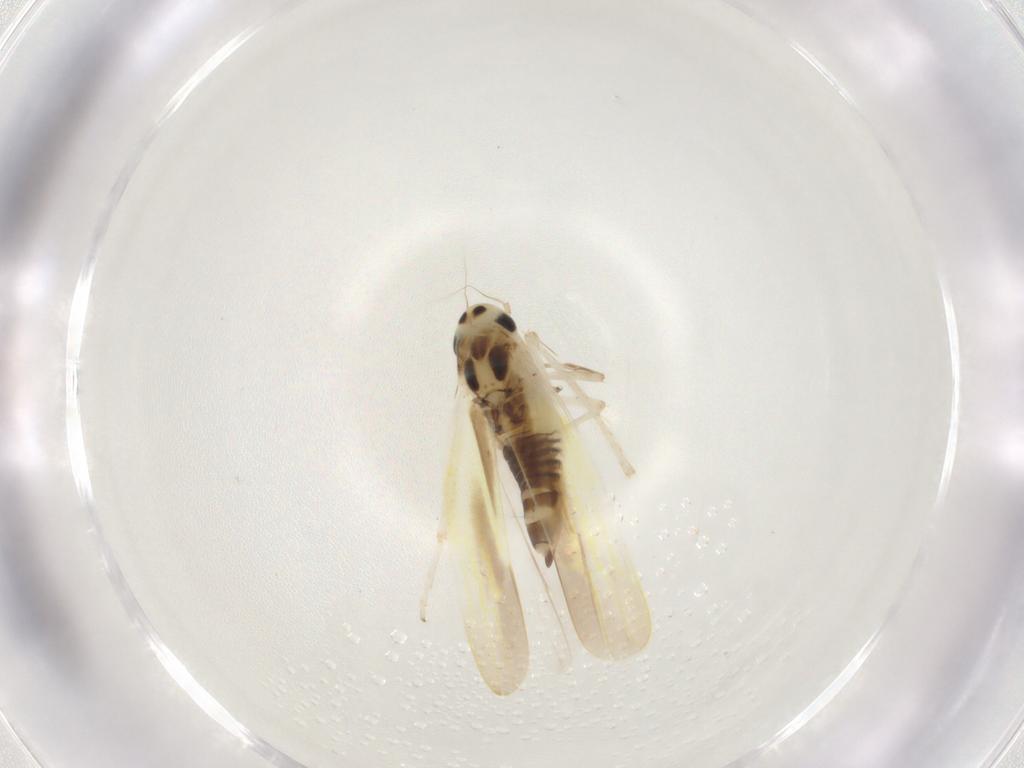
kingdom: Animalia
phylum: Arthropoda
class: Insecta
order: Hemiptera
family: Cicadellidae
